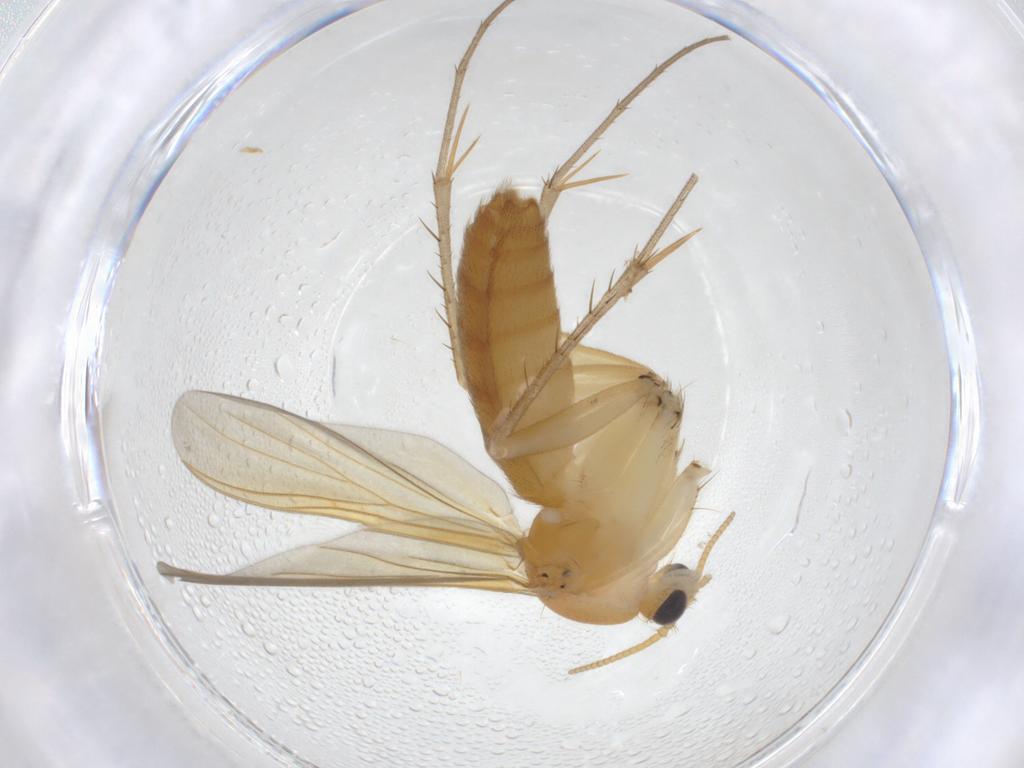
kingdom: Animalia
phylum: Arthropoda
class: Insecta
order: Diptera
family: Mycetophilidae
